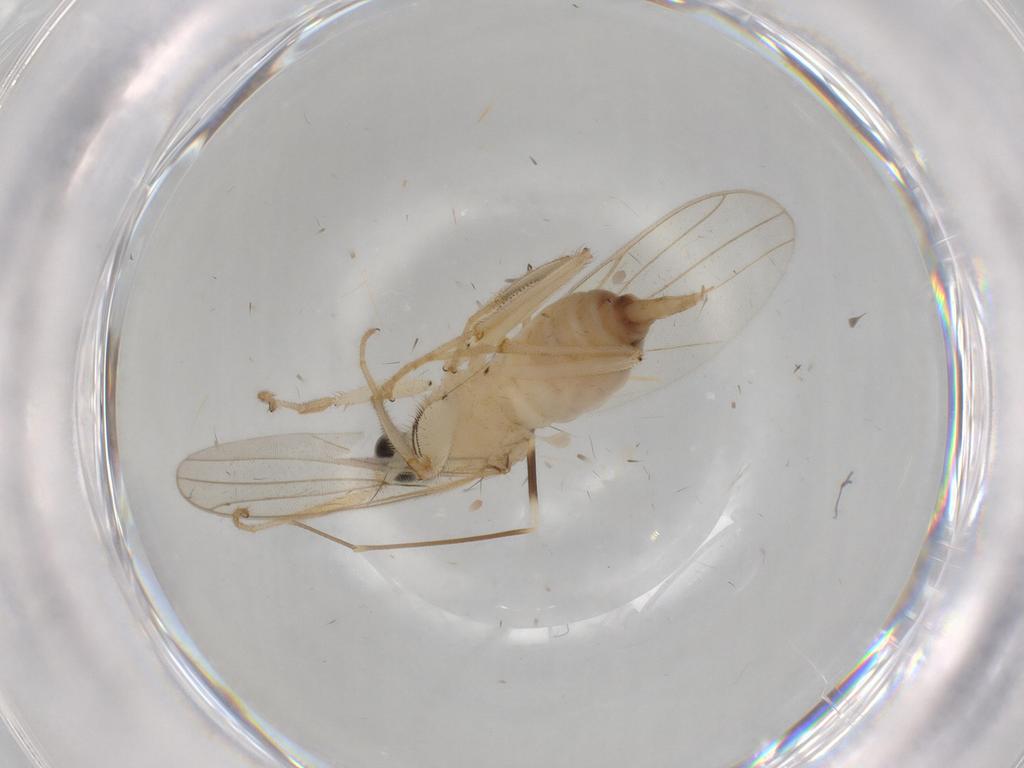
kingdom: Animalia
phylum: Arthropoda
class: Insecta
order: Diptera
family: Hybotidae
